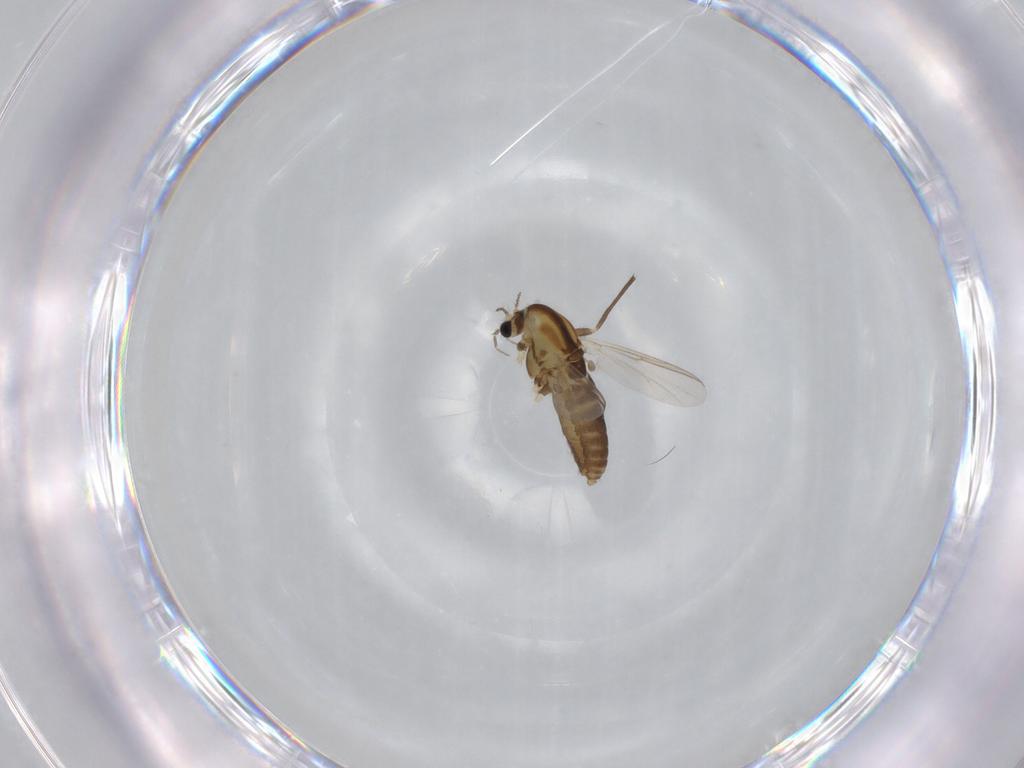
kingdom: Animalia
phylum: Arthropoda
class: Insecta
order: Diptera
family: Chironomidae
